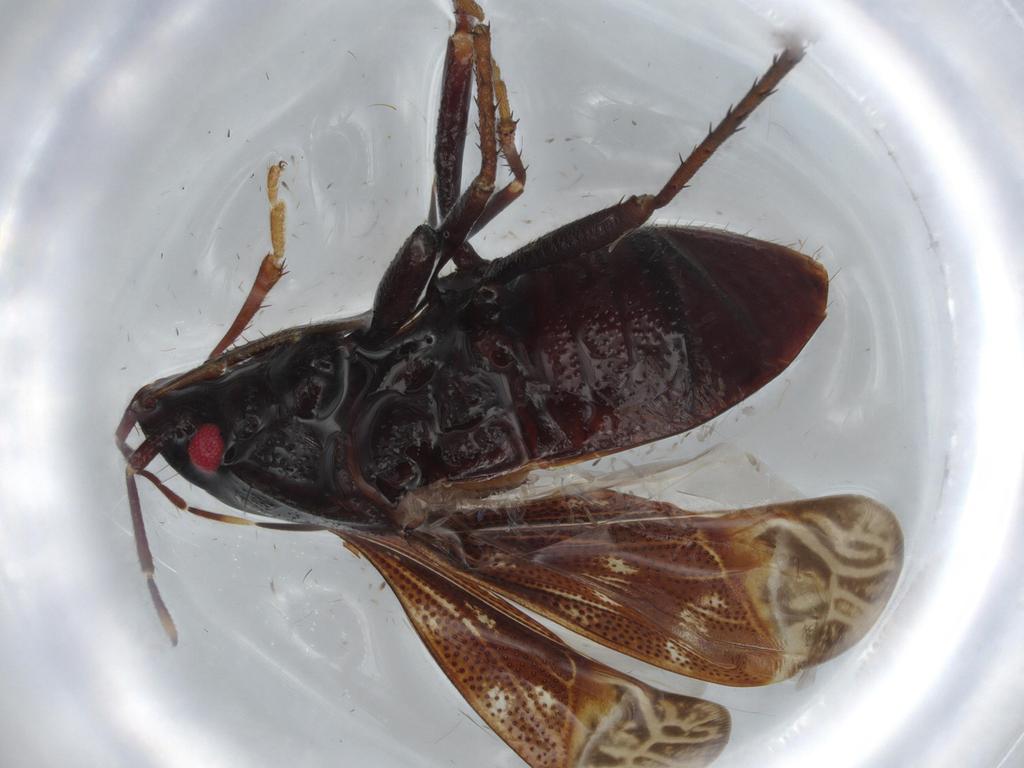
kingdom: Animalia
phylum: Arthropoda
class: Insecta
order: Hemiptera
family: Rhyparochromidae
